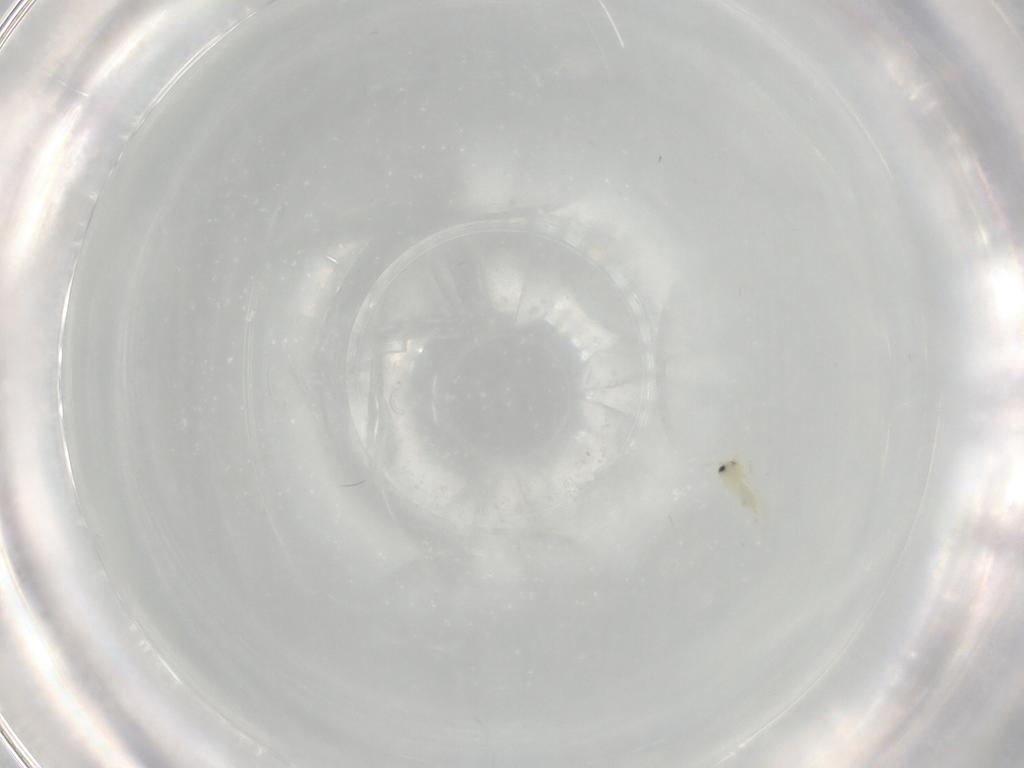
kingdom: Animalia
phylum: Arthropoda
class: Insecta
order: Hemiptera
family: Aleyrodidae
